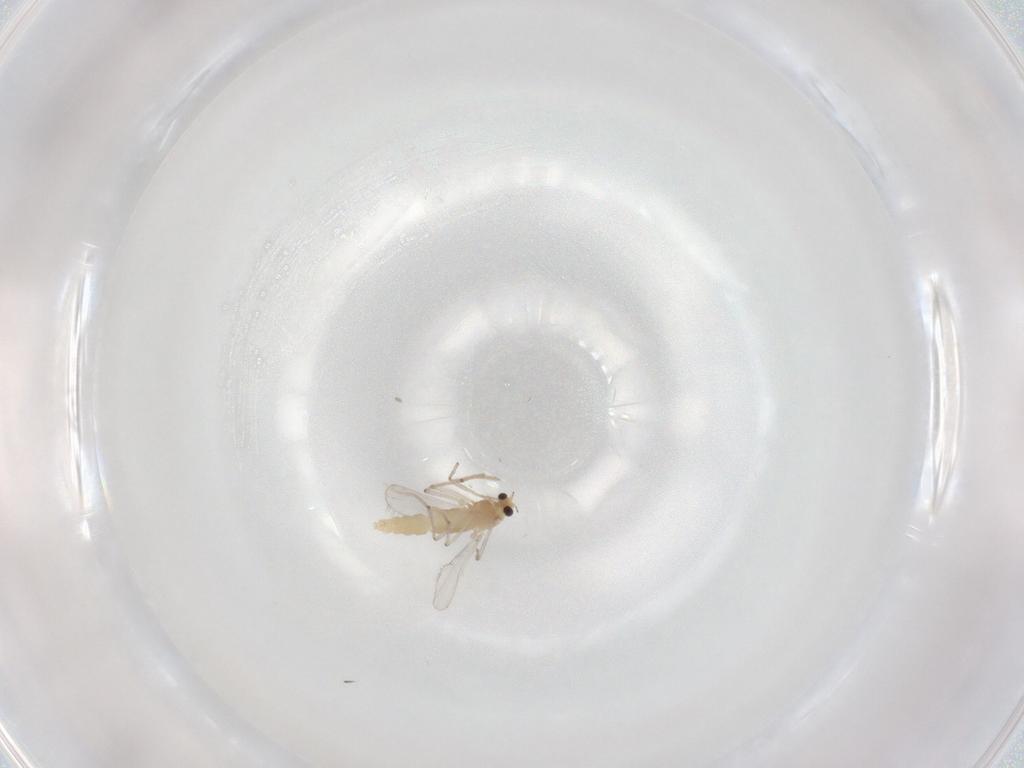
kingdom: Animalia
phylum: Arthropoda
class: Insecta
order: Diptera
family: Chironomidae
